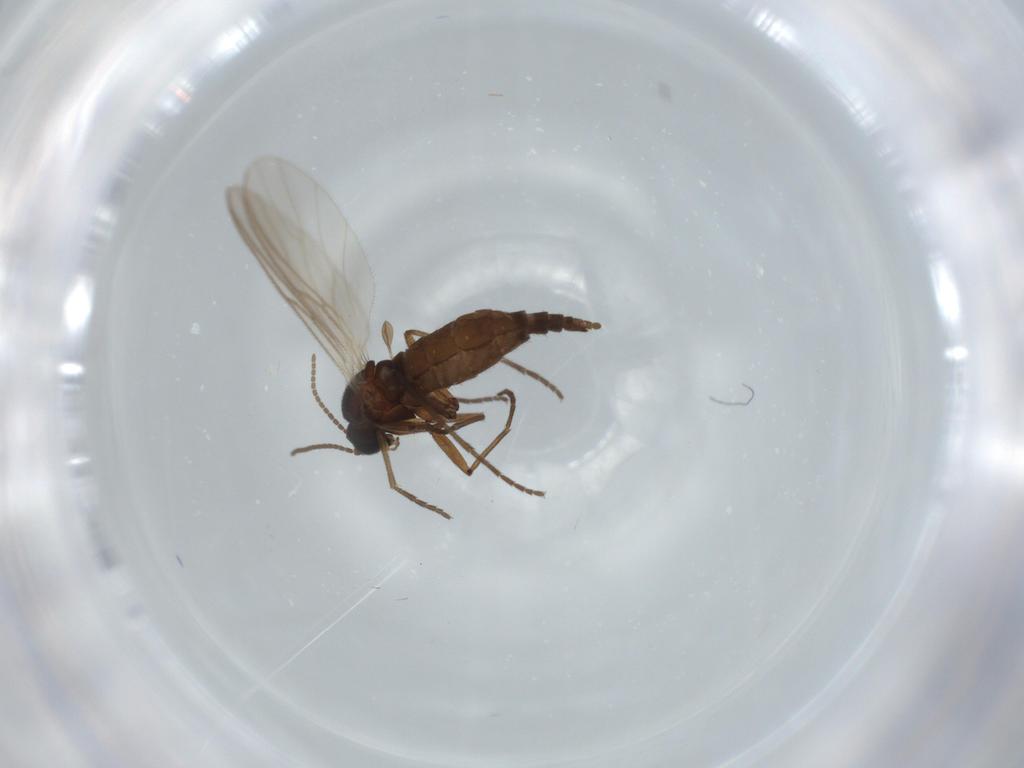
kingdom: Animalia
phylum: Arthropoda
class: Insecta
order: Diptera
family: Sciaridae
